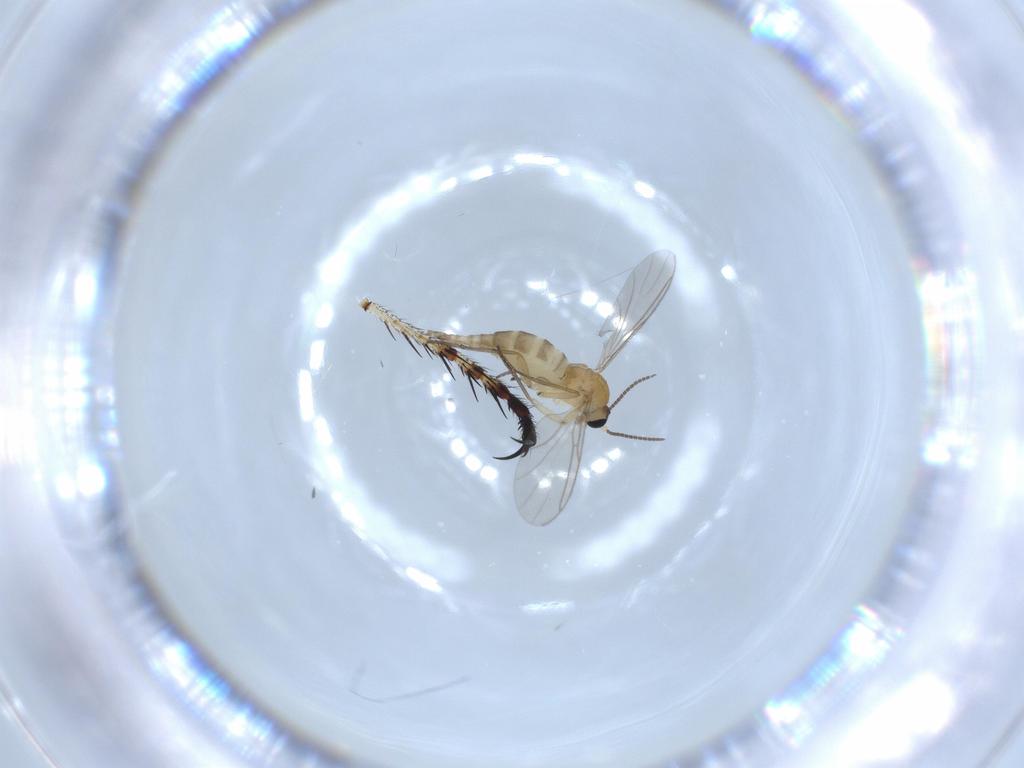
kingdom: Animalia
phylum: Arthropoda
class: Insecta
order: Diptera
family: Sciaridae
